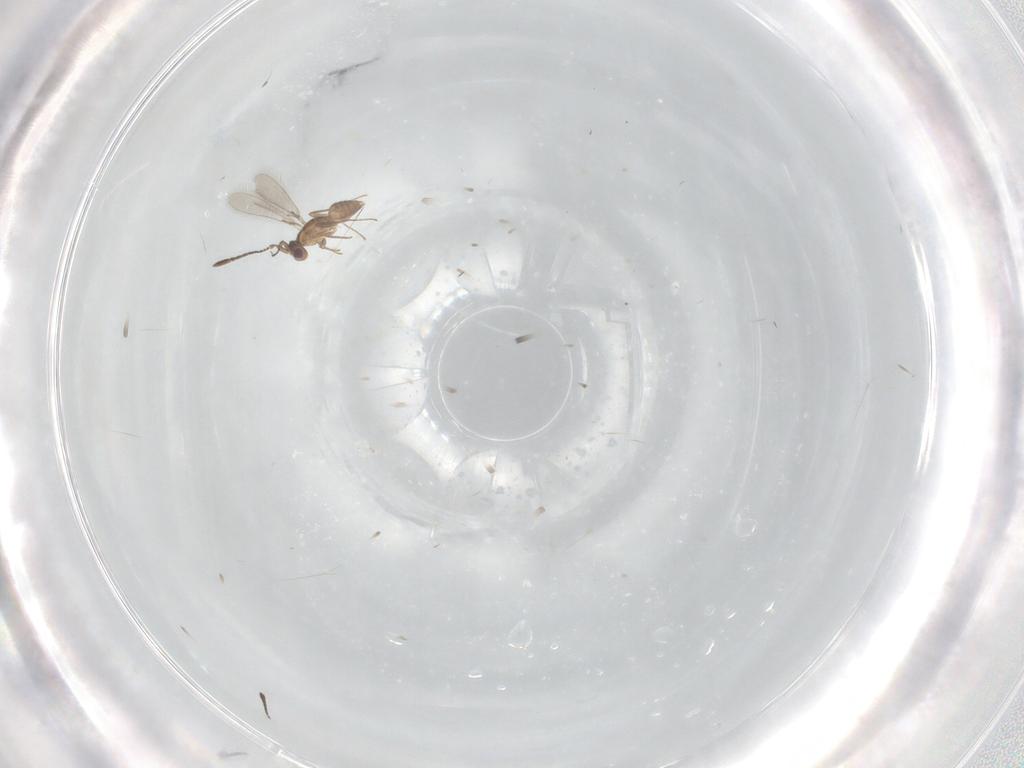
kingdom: Animalia
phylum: Arthropoda
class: Insecta
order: Hymenoptera
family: Mymaridae
